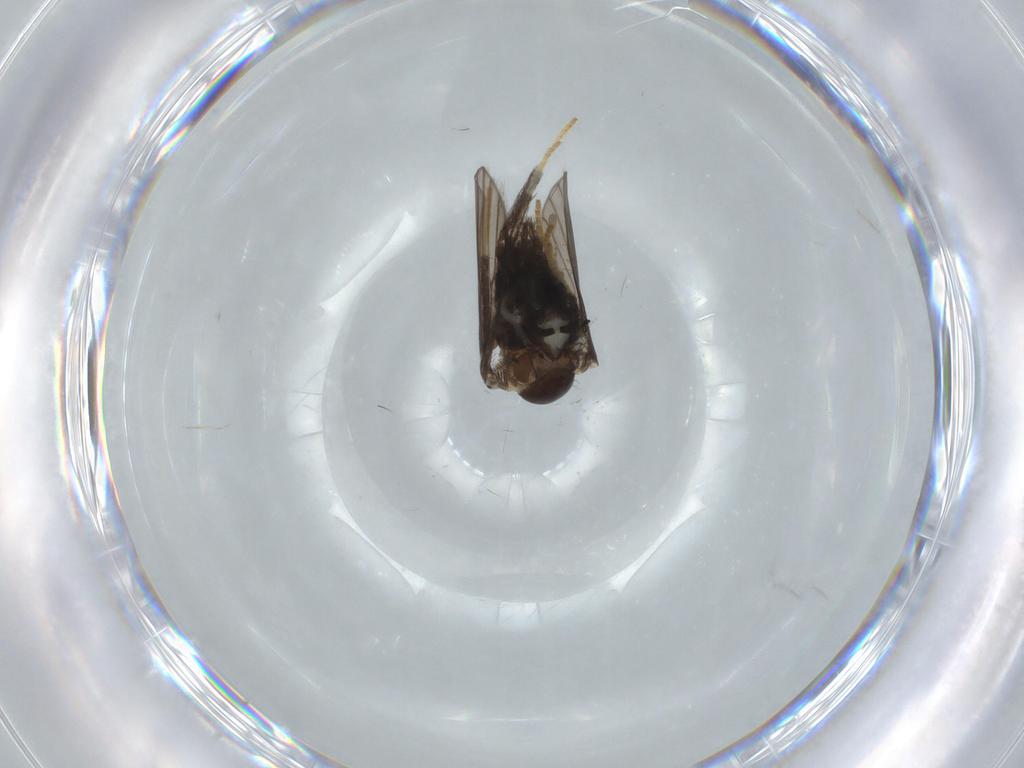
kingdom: Animalia
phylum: Arthropoda
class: Insecta
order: Diptera
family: Psychodidae
